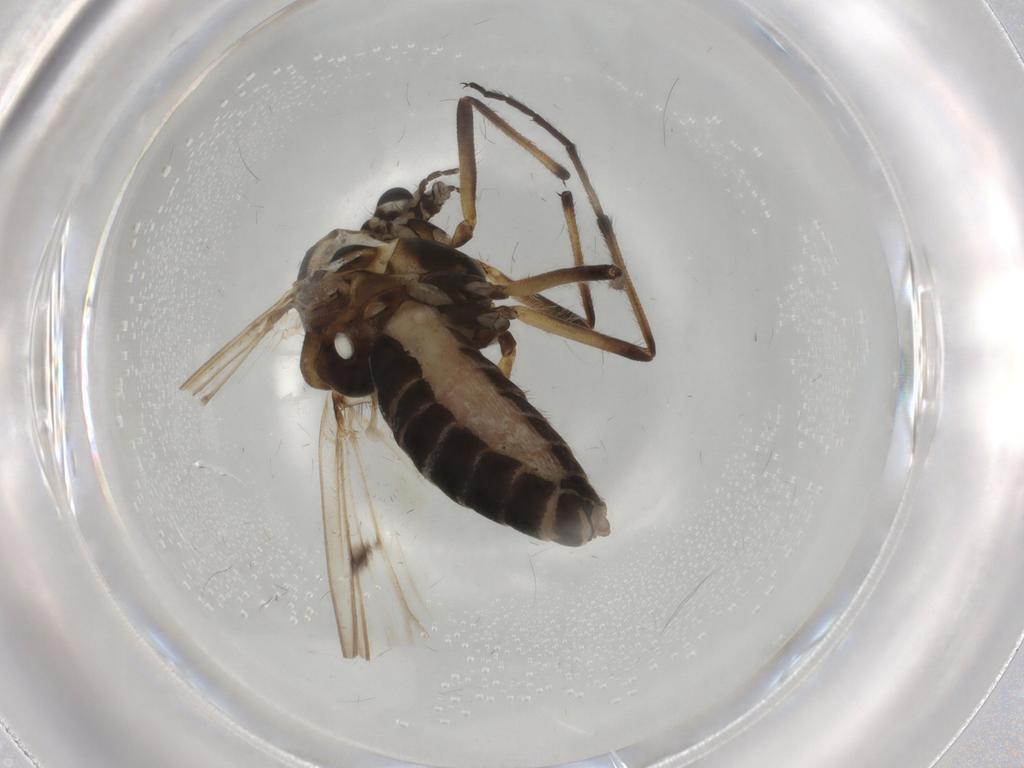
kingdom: Animalia
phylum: Arthropoda
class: Insecta
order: Diptera
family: Chironomidae
